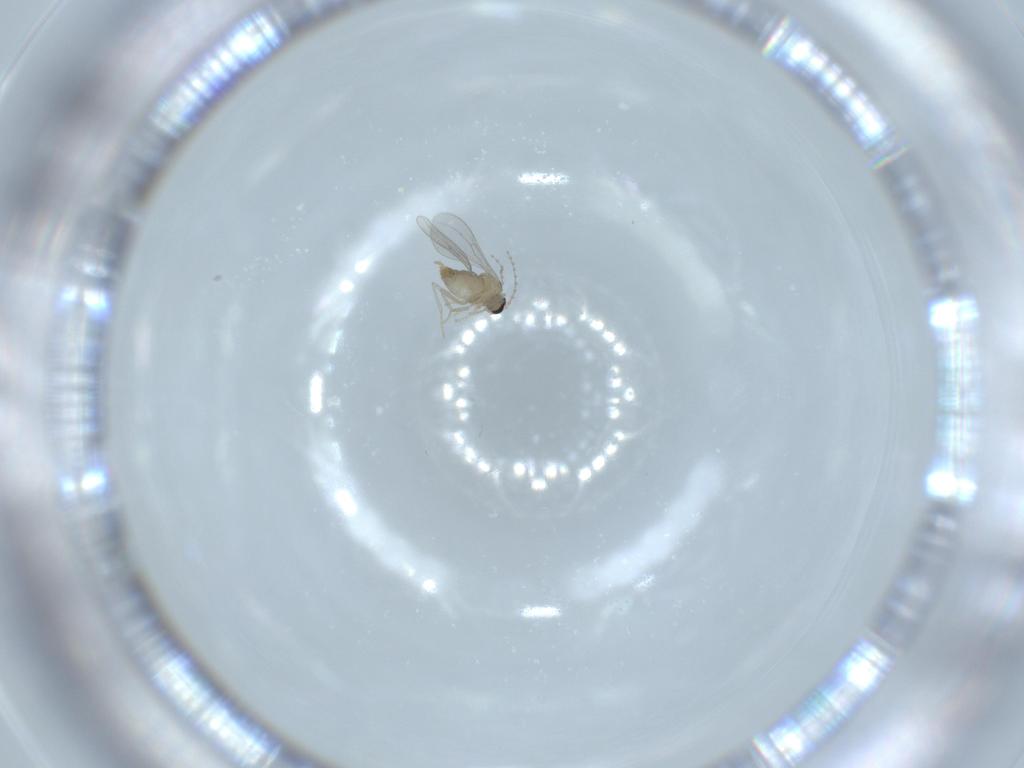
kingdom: Animalia
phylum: Arthropoda
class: Insecta
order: Diptera
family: Cecidomyiidae
